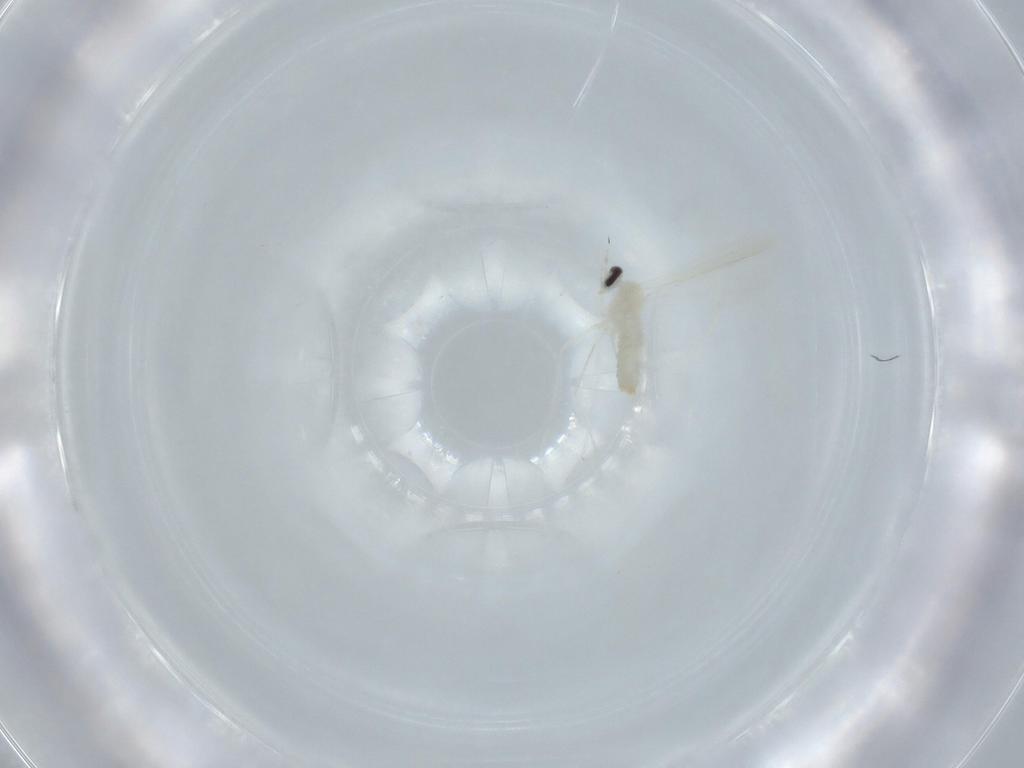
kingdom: Animalia
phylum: Arthropoda
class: Insecta
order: Diptera
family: Cecidomyiidae
